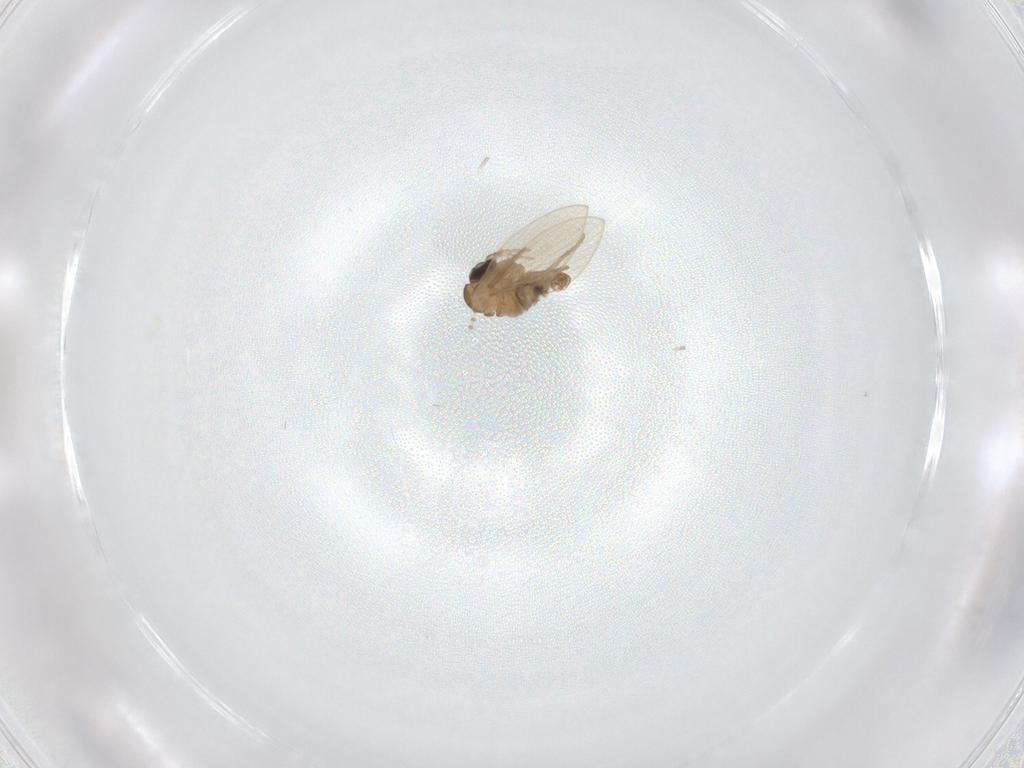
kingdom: Animalia
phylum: Arthropoda
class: Insecta
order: Diptera
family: Psychodidae
